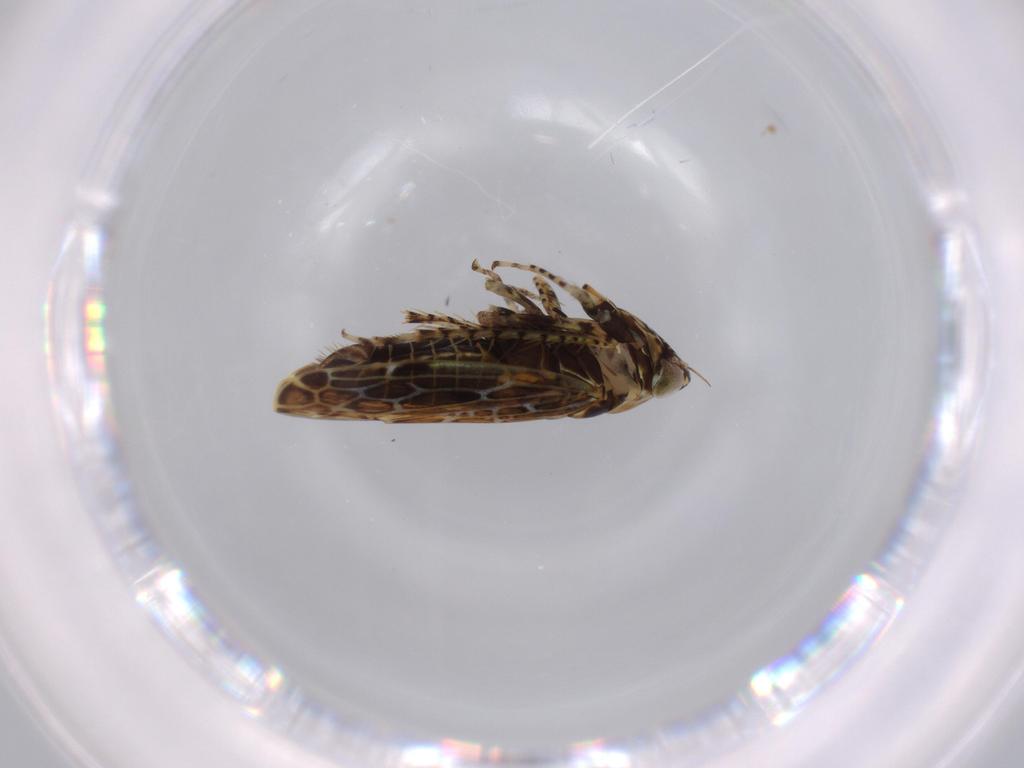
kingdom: Animalia
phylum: Arthropoda
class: Insecta
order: Hemiptera
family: Cicadellidae
